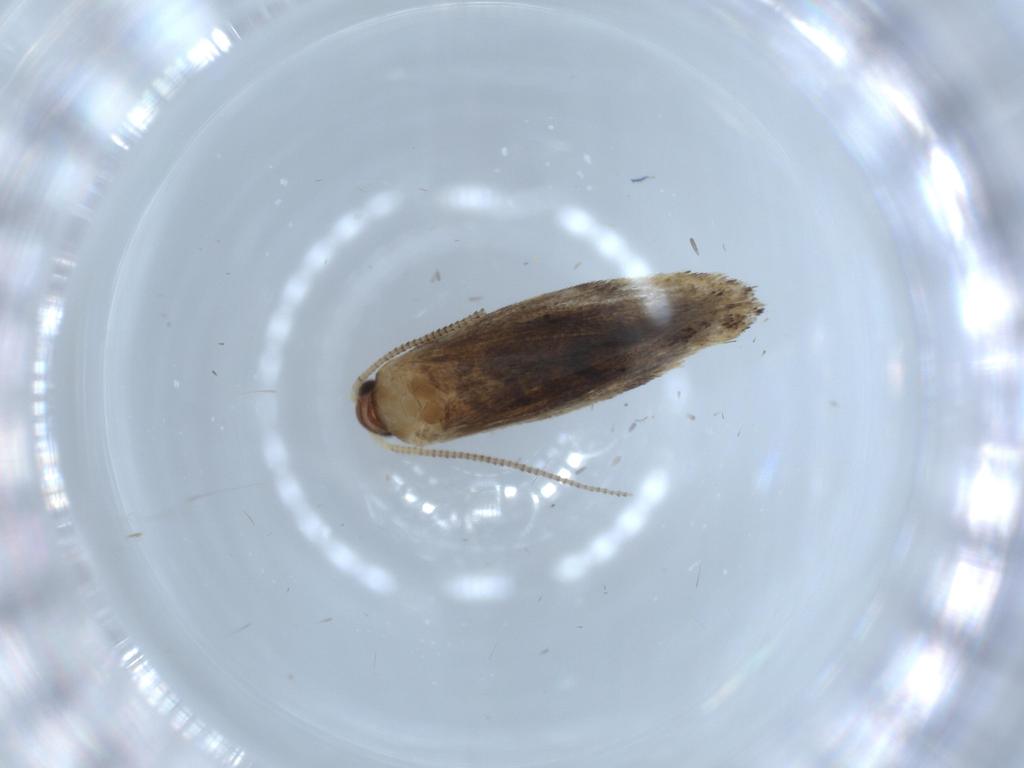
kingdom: Animalia
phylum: Arthropoda
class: Insecta
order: Lepidoptera
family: Tineidae
